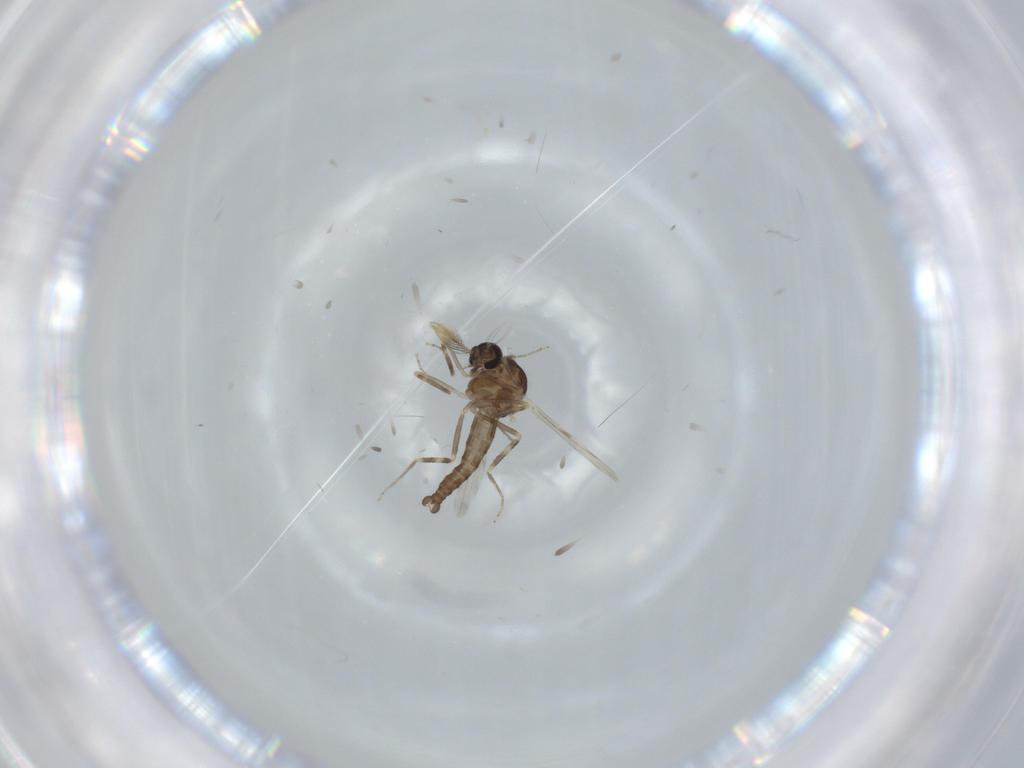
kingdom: Animalia
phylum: Arthropoda
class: Insecta
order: Diptera
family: Ceratopogonidae
